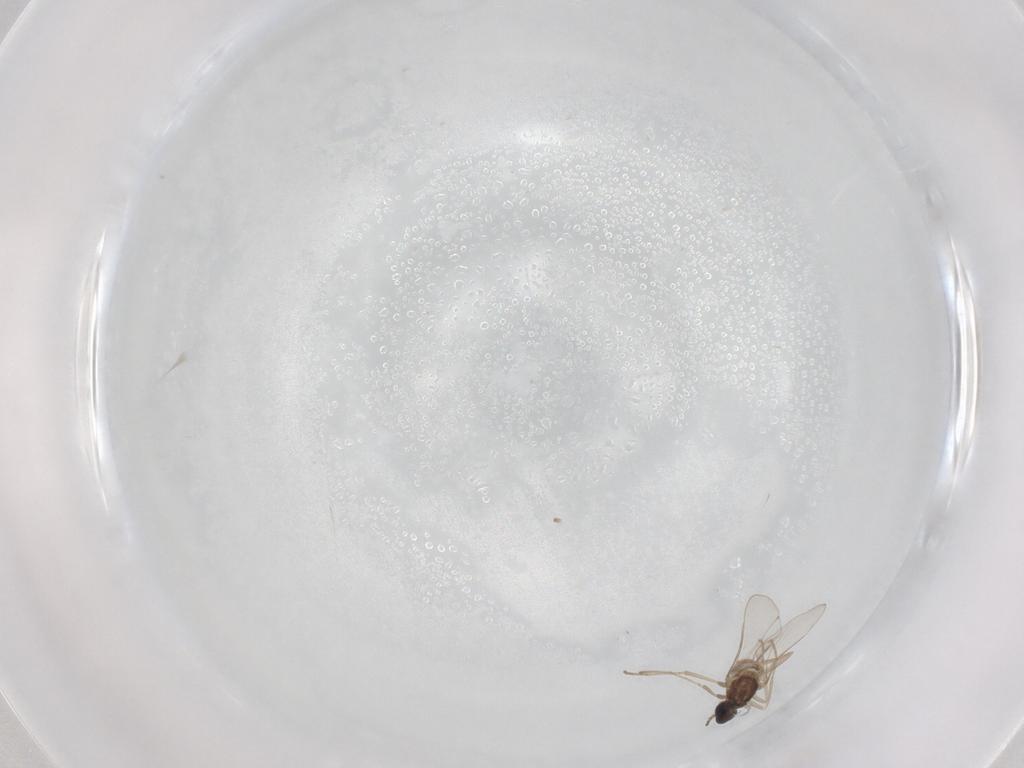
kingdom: Animalia
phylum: Arthropoda
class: Insecta
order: Diptera
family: Cecidomyiidae
